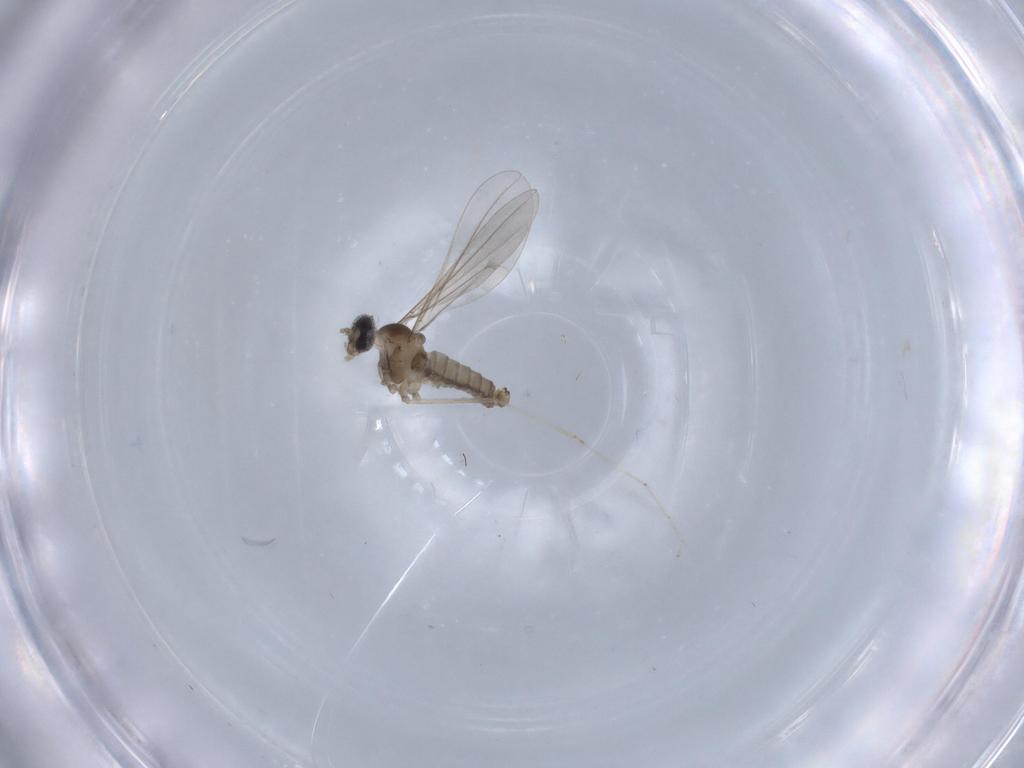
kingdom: Animalia
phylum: Arthropoda
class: Insecta
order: Diptera
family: Cecidomyiidae
